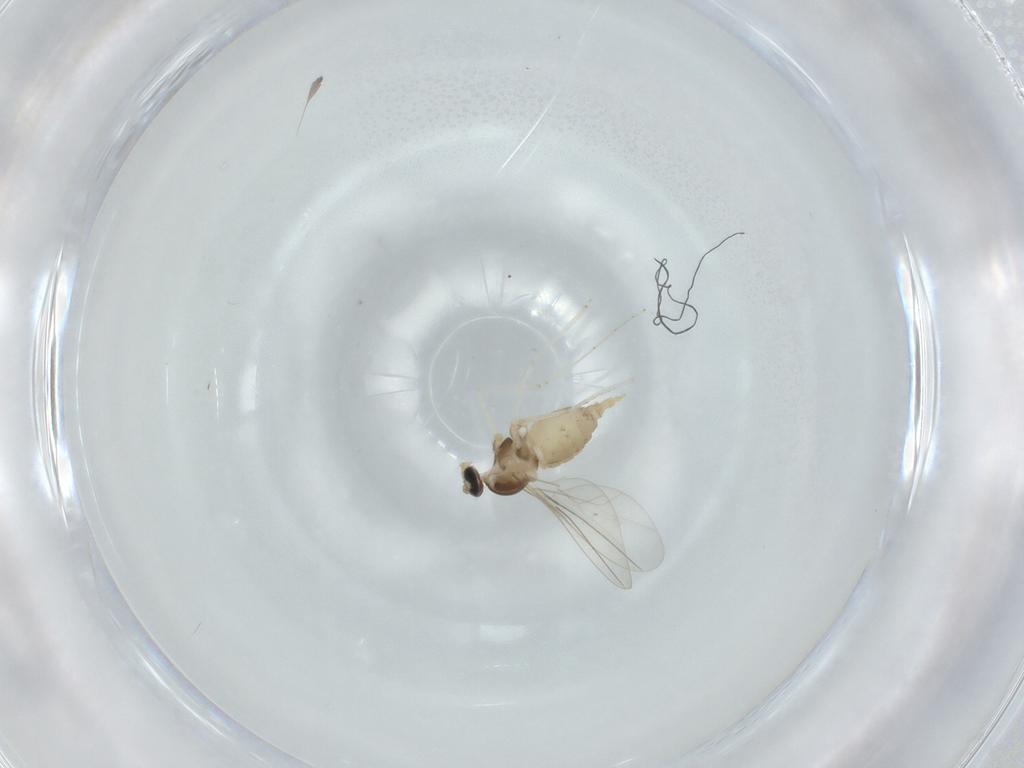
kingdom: Animalia
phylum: Arthropoda
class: Insecta
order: Diptera
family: Cecidomyiidae
